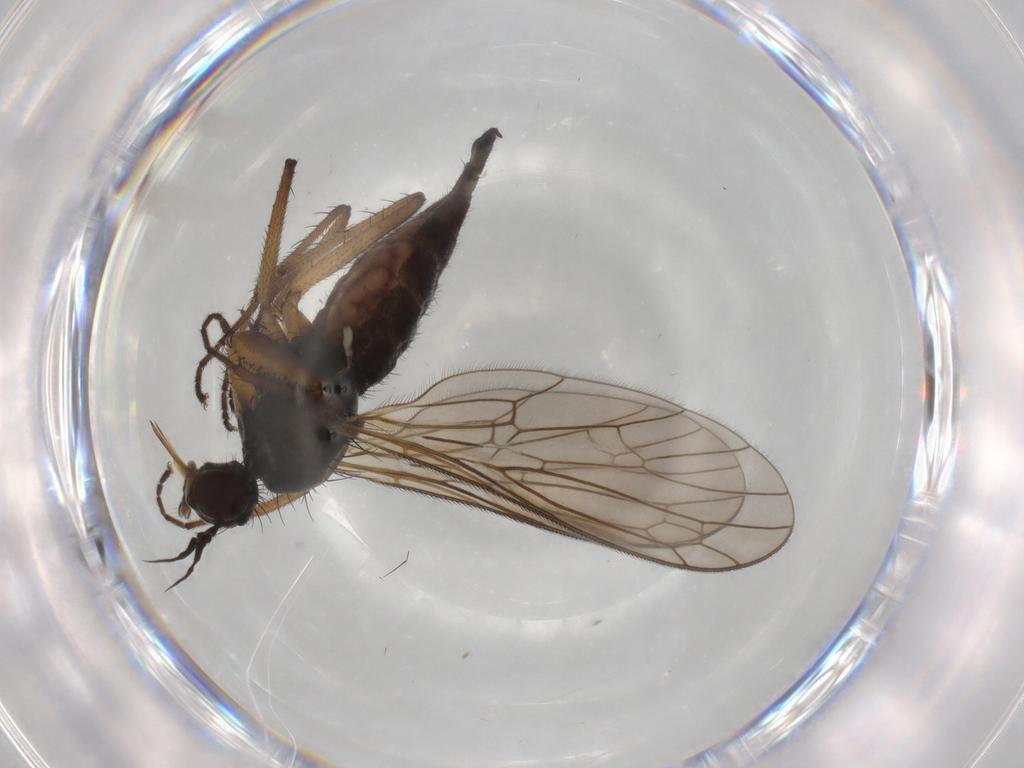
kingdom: Animalia
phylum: Arthropoda
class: Insecta
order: Diptera
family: Empididae
